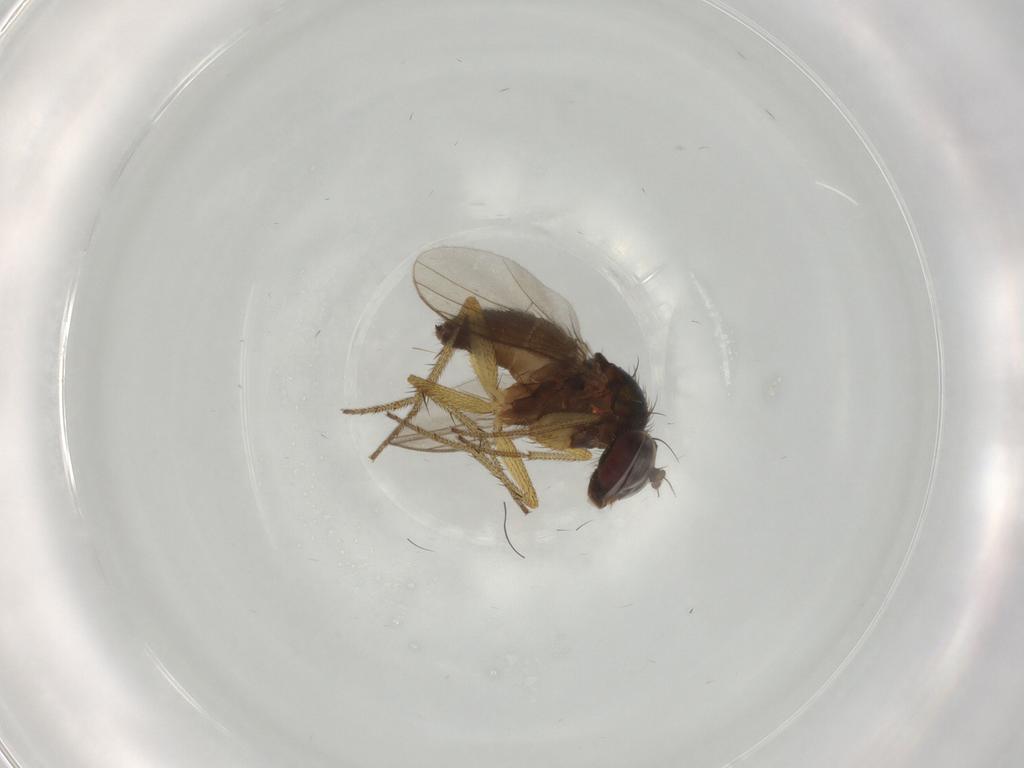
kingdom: Animalia
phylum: Arthropoda
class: Insecta
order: Diptera
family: Dolichopodidae
